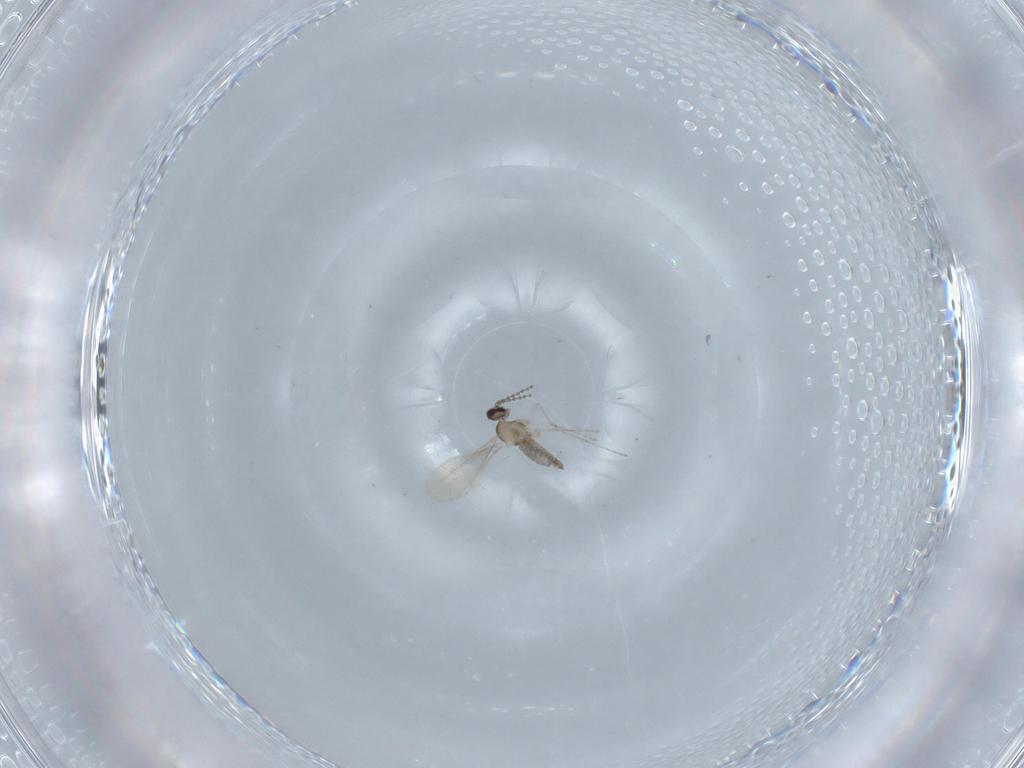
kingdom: Animalia
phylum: Arthropoda
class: Insecta
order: Diptera
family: Cecidomyiidae
